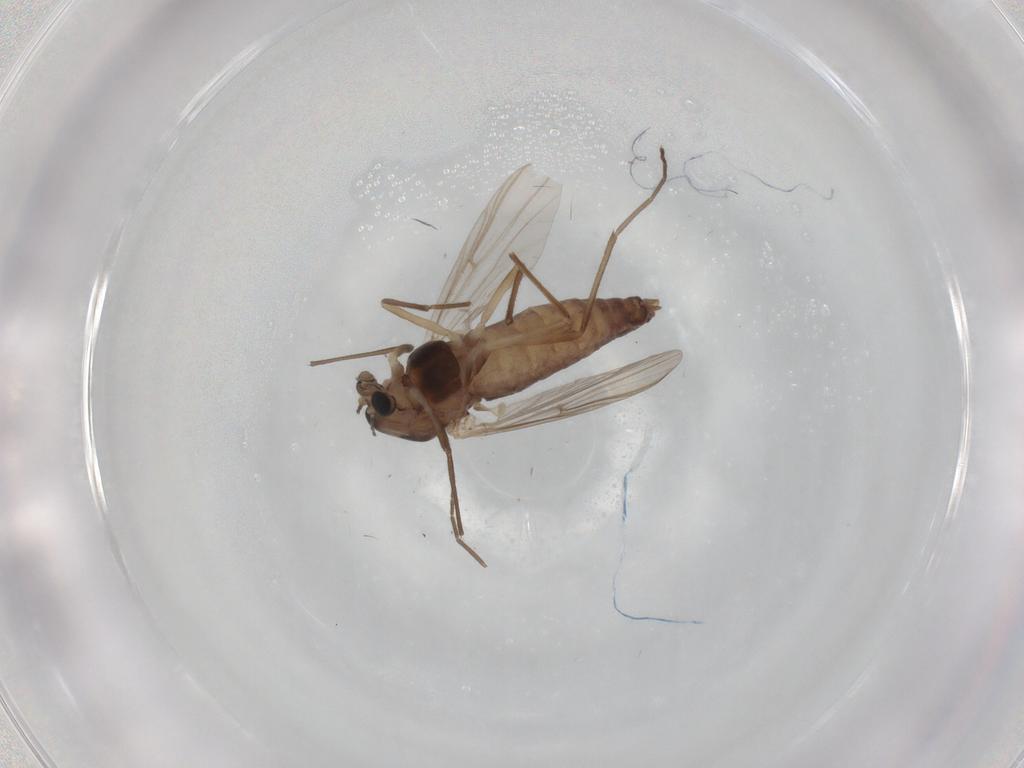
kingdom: Animalia
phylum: Arthropoda
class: Insecta
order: Diptera
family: Chironomidae
